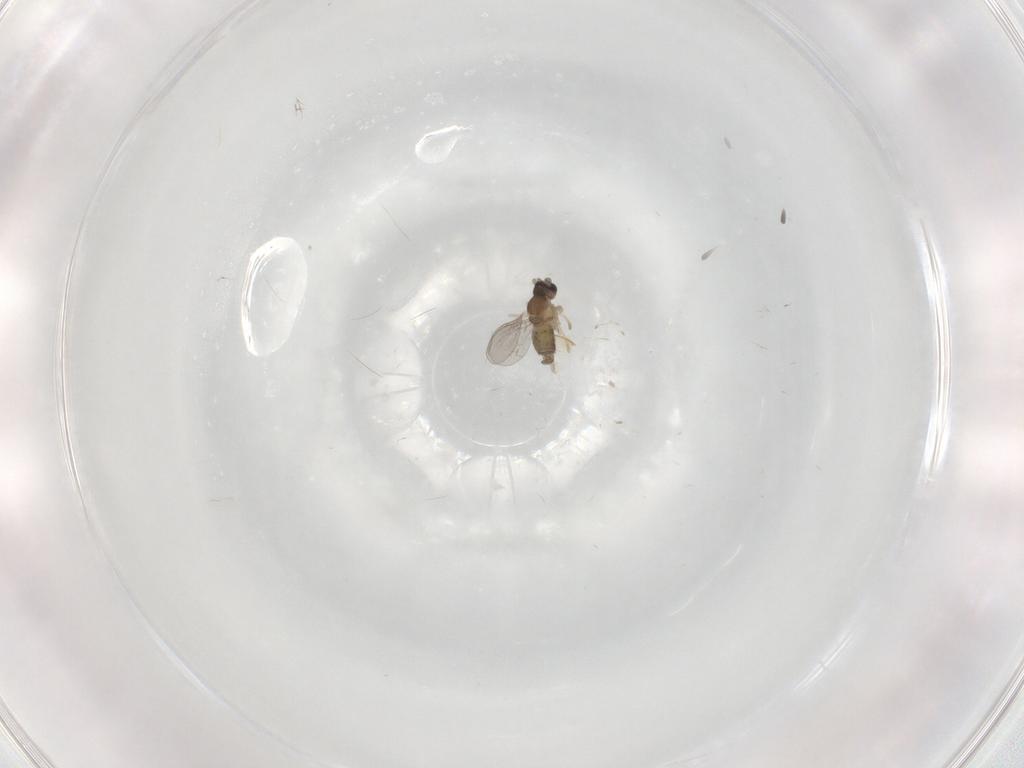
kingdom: Animalia
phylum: Arthropoda
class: Insecta
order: Diptera
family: Cecidomyiidae
